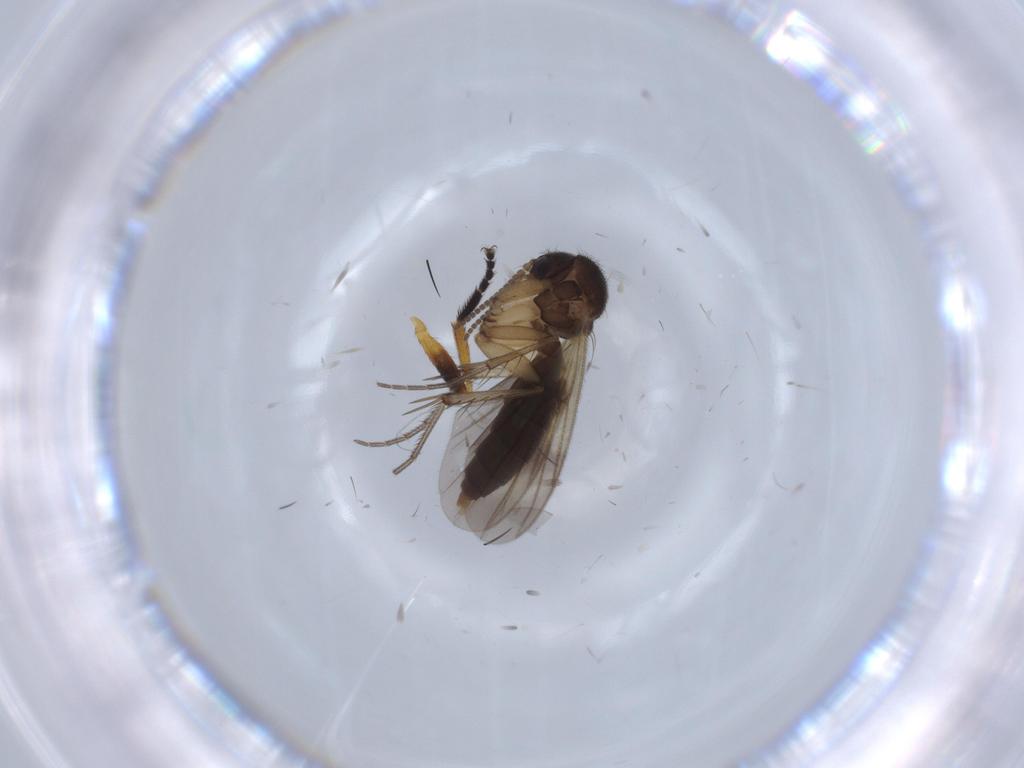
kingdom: Animalia
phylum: Arthropoda
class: Insecta
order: Diptera
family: Piophilidae
